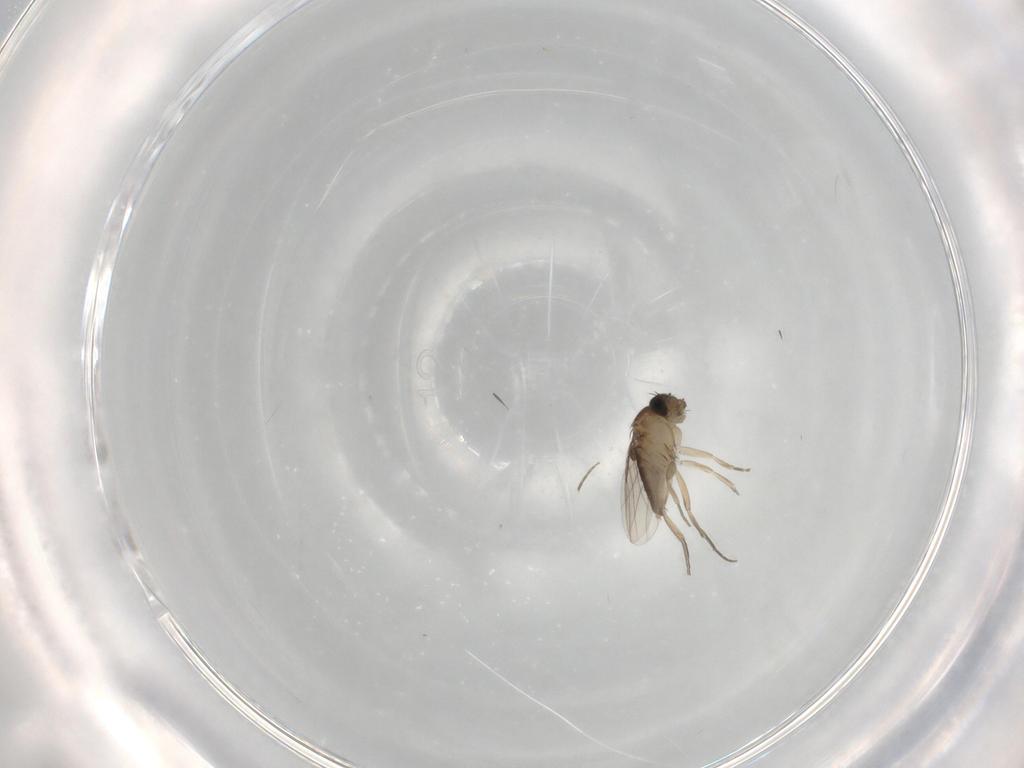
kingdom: Animalia
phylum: Arthropoda
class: Insecta
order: Diptera
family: Phoridae
